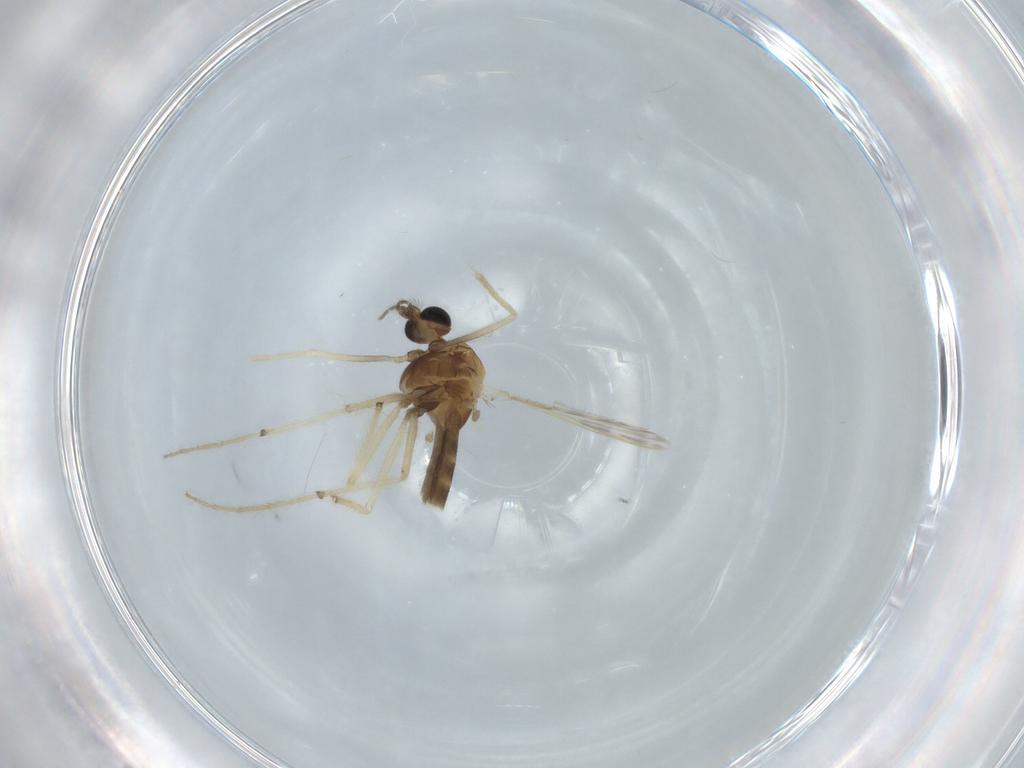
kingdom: Animalia
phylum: Arthropoda
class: Insecta
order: Diptera
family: Chironomidae
